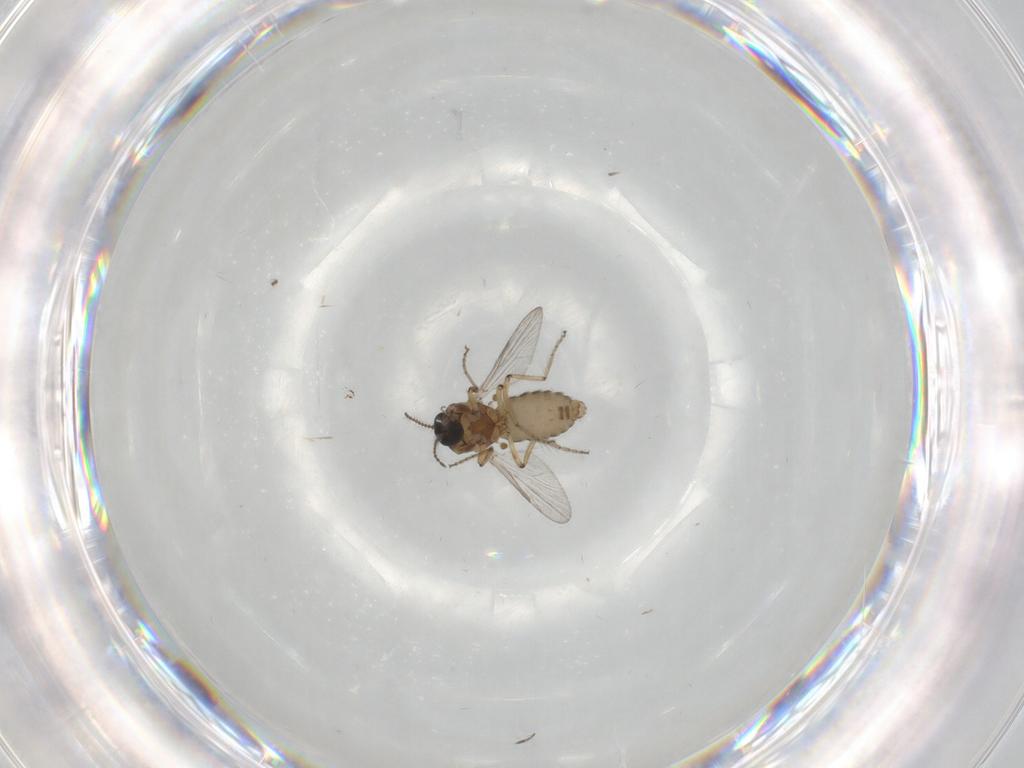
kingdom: Animalia
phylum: Arthropoda
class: Insecta
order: Diptera
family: Ceratopogonidae
